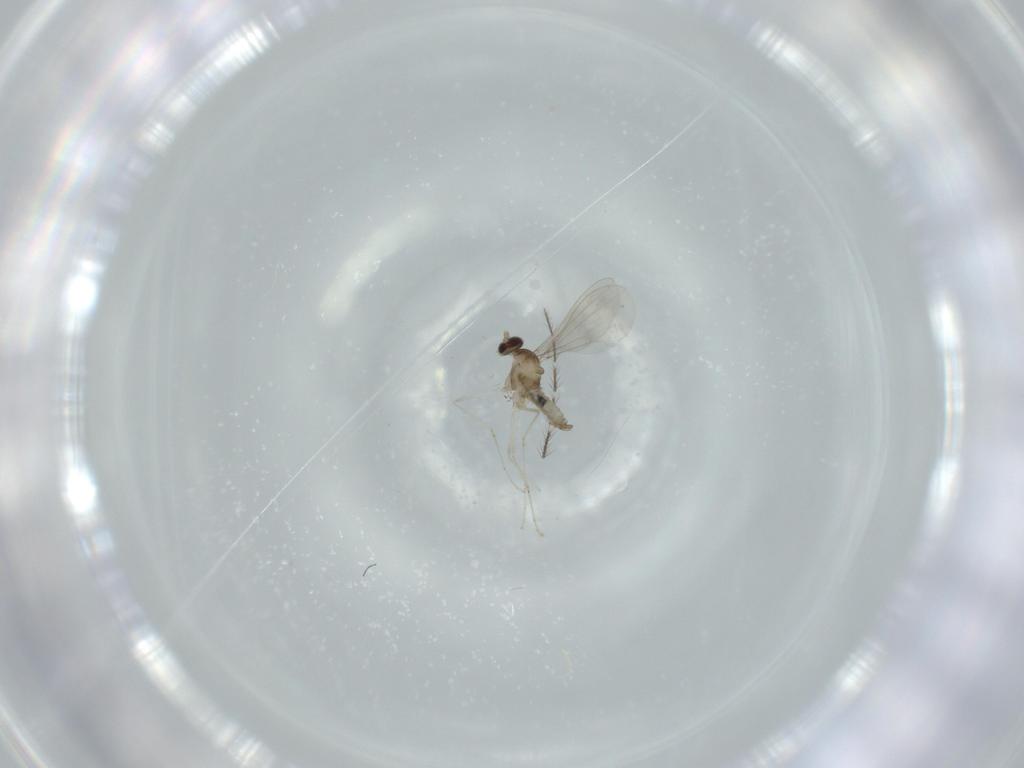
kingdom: Animalia
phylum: Arthropoda
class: Insecta
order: Diptera
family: Cecidomyiidae
